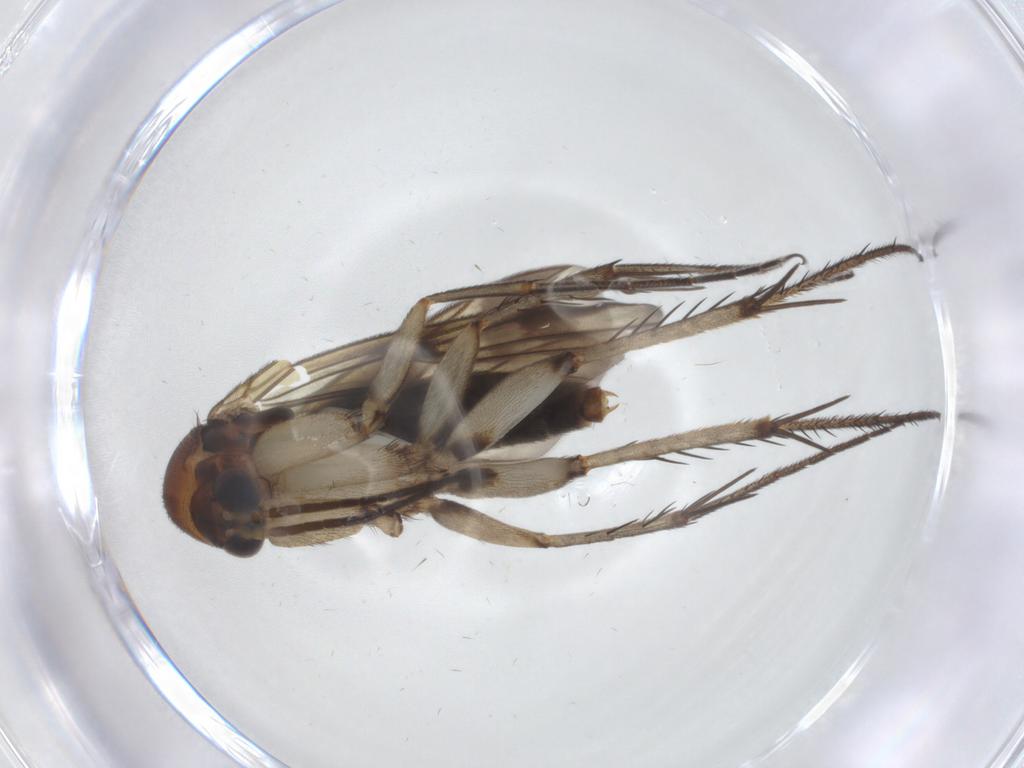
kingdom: Animalia
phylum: Arthropoda
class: Insecta
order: Diptera
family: Mycetophilidae
